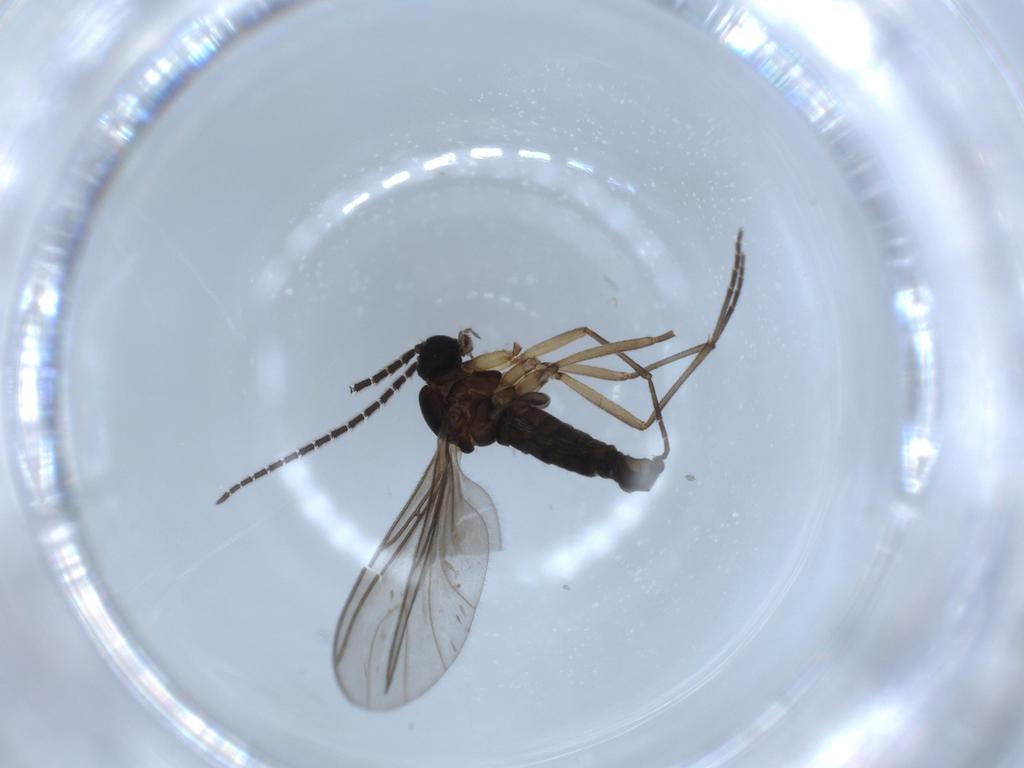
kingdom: Animalia
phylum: Arthropoda
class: Insecta
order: Diptera
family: Sciaridae
